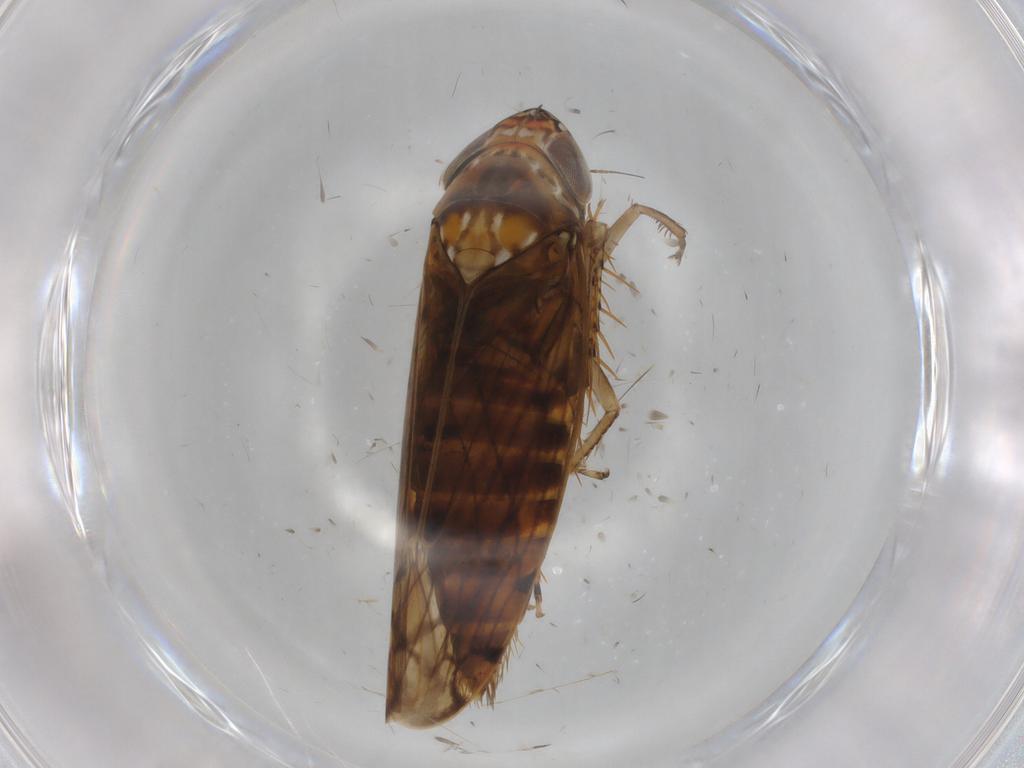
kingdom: Animalia
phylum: Arthropoda
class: Insecta
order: Hemiptera
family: Cicadellidae
